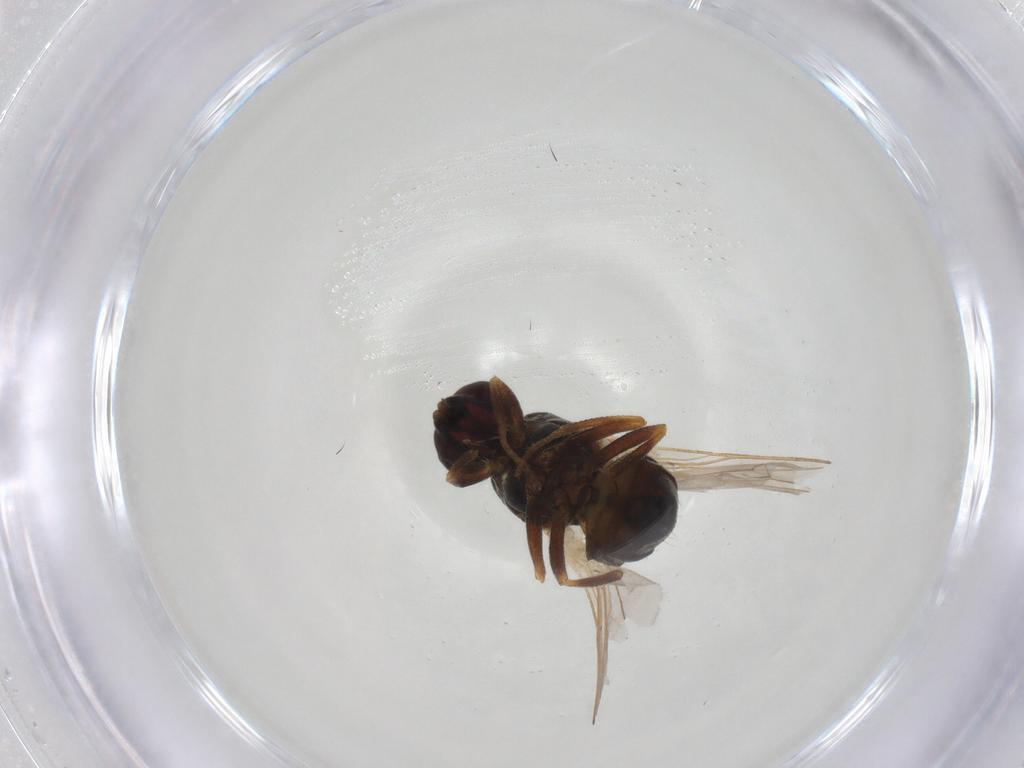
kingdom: Animalia
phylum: Arthropoda
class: Insecta
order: Diptera
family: Muscidae
